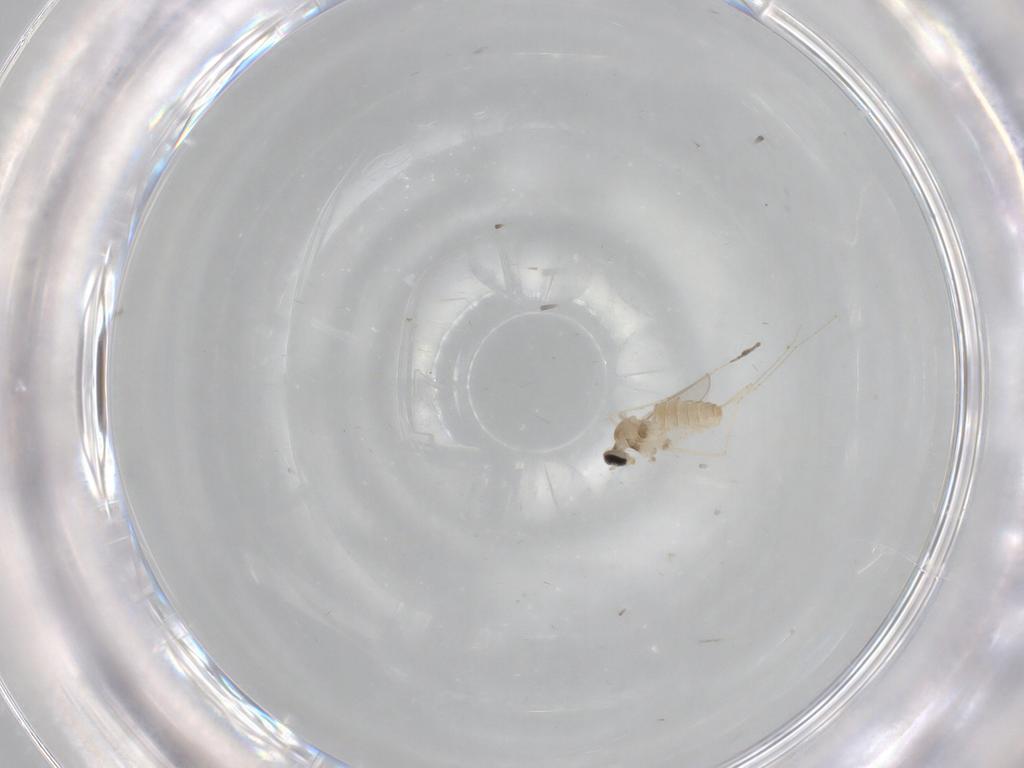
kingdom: Animalia
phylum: Arthropoda
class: Insecta
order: Diptera
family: Cecidomyiidae
